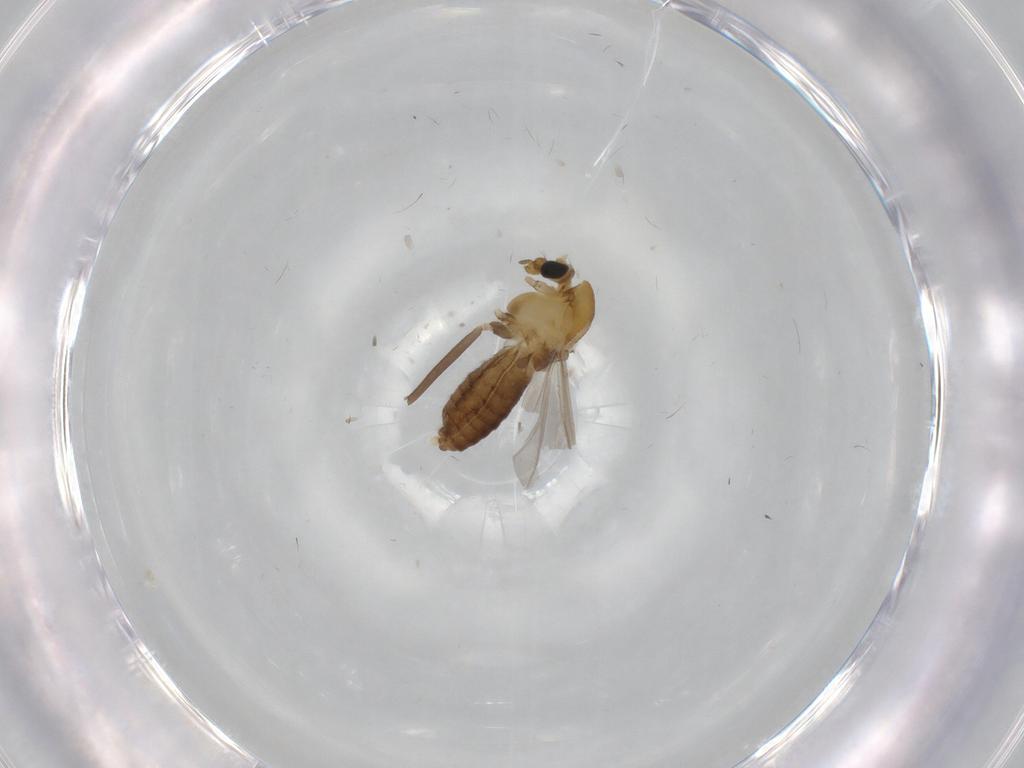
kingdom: Animalia
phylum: Arthropoda
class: Insecta
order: Diptera
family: Chironomidae
